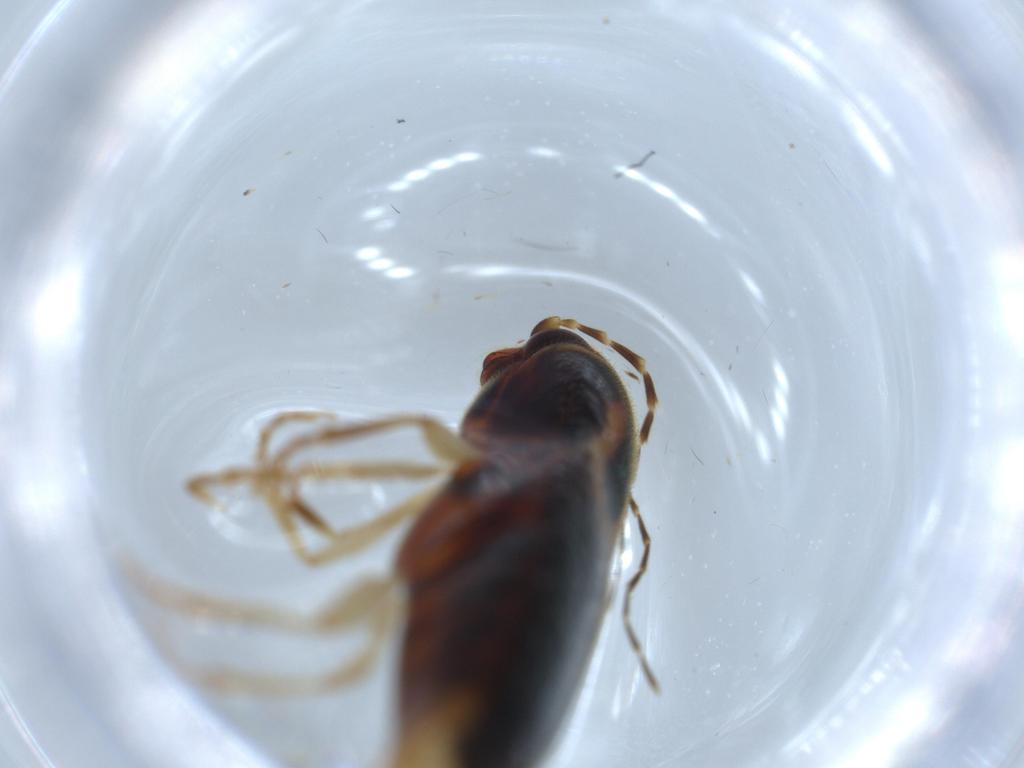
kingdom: Animalia
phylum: Arthropoda
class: Insecta
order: Coleoptera
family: Elateridae
